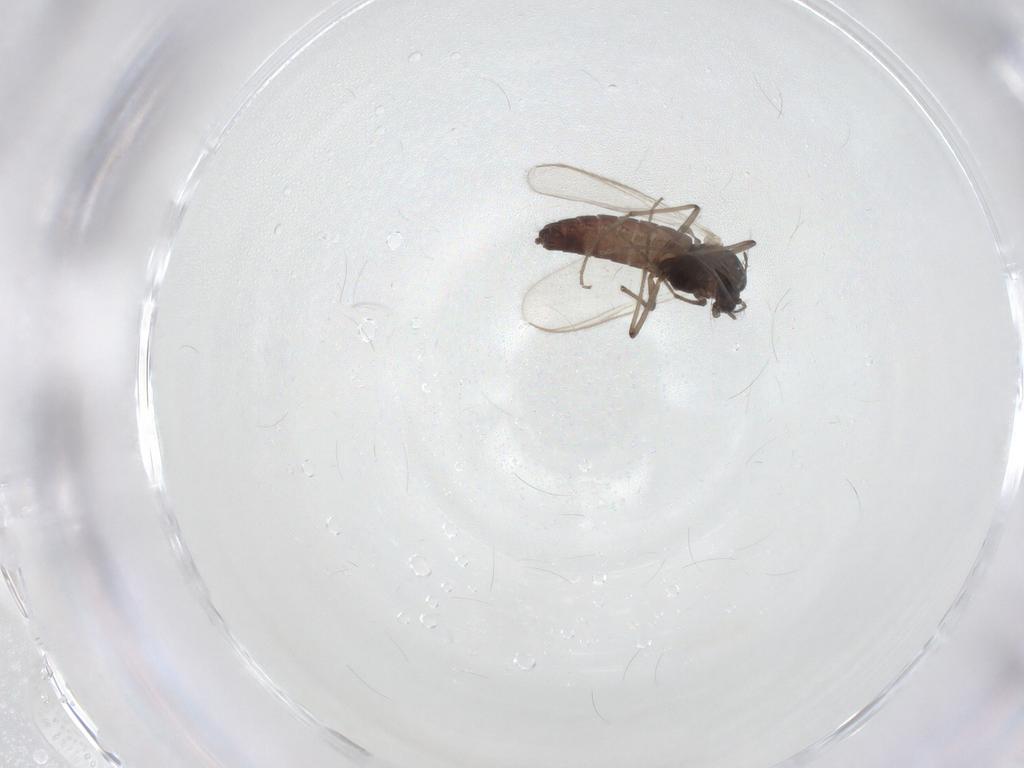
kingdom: Animalia
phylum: Arthropoda
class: Insecta
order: Diptera
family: Chironomidae
